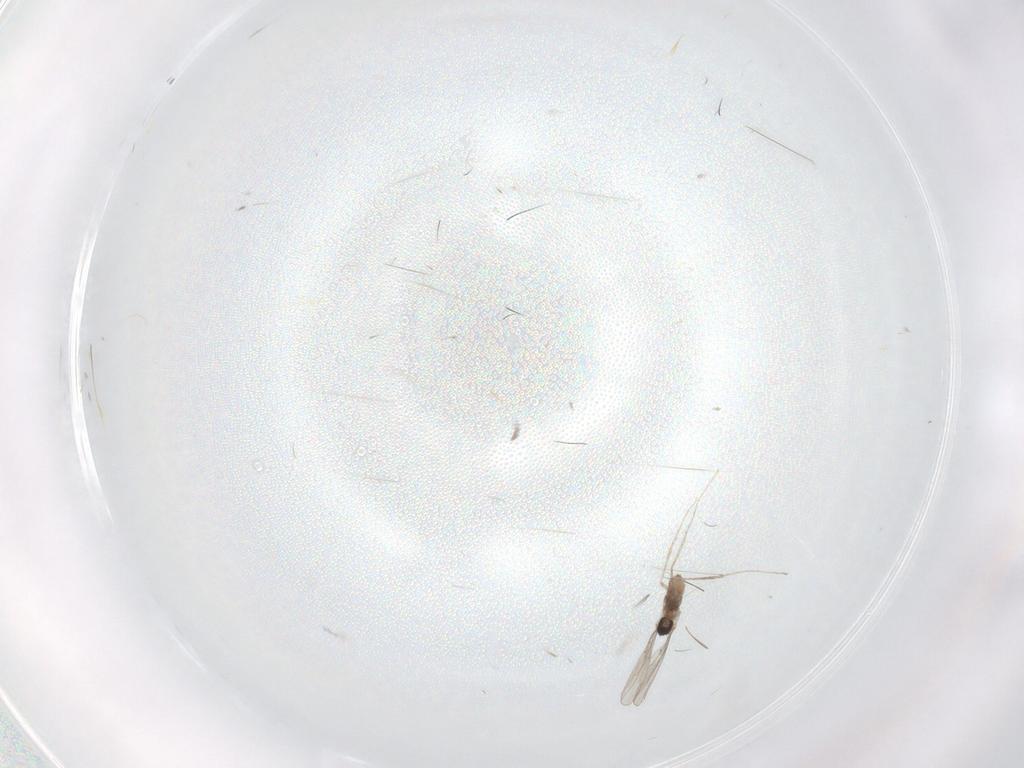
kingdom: Animalia
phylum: Arthropoda
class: Insecta
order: Diptera
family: Cecidomyiidae
